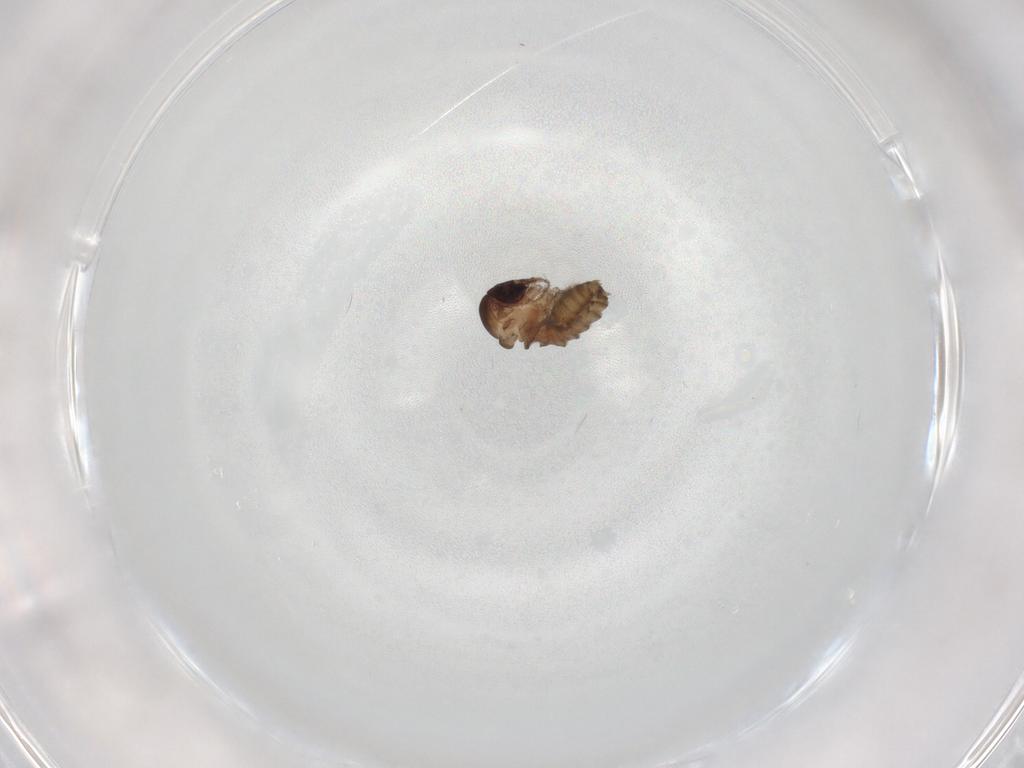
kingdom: Animalia
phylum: Arthropoda
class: Insecta
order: Diptera
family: Psychodidae
